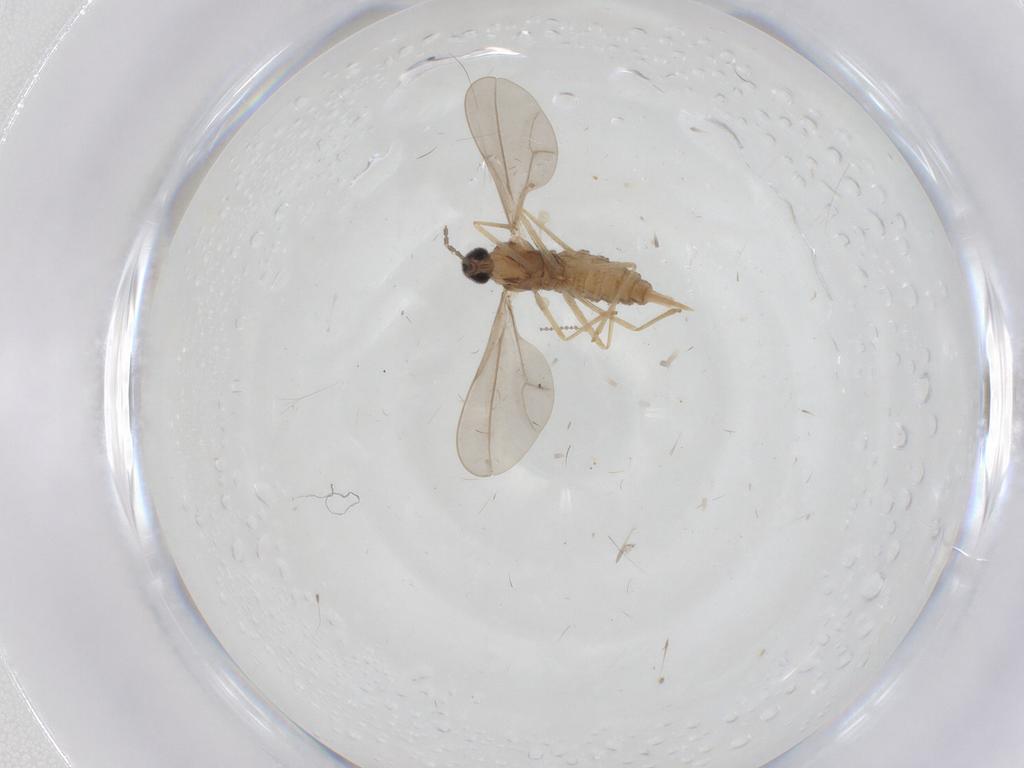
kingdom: Animalia
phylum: Arthropoda
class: Insecta
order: Diptera
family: Cecidomyiidae
